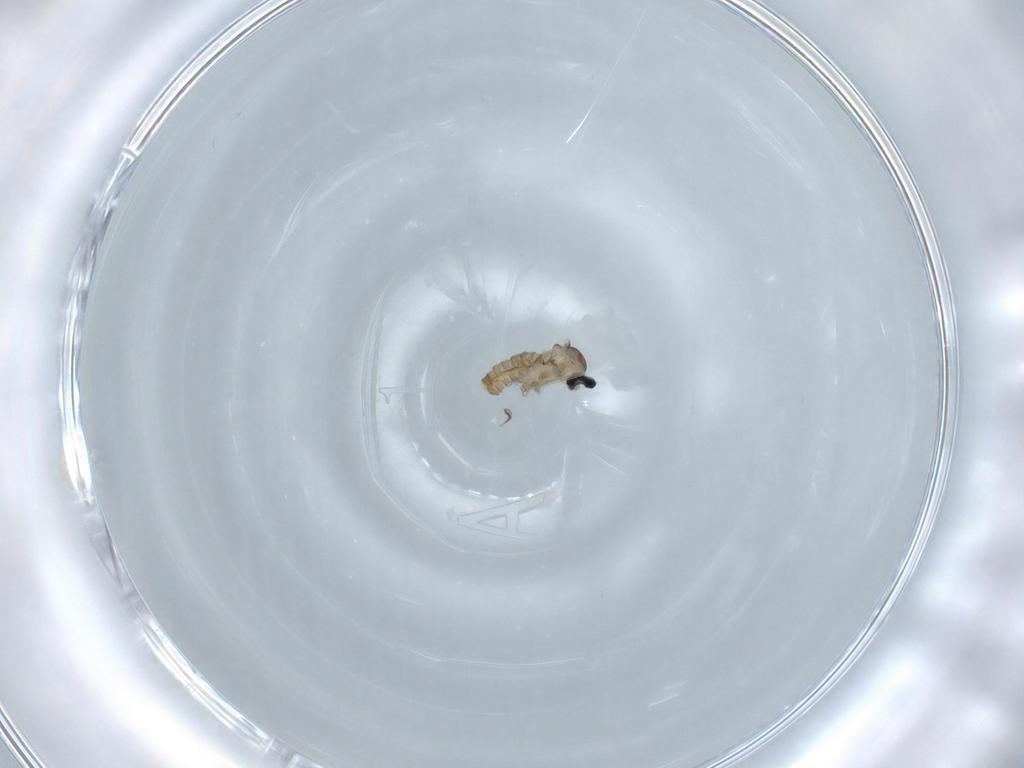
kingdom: Animalia
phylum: Arthropoda
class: Insecta
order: Diptera
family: Cecidomyiidae
